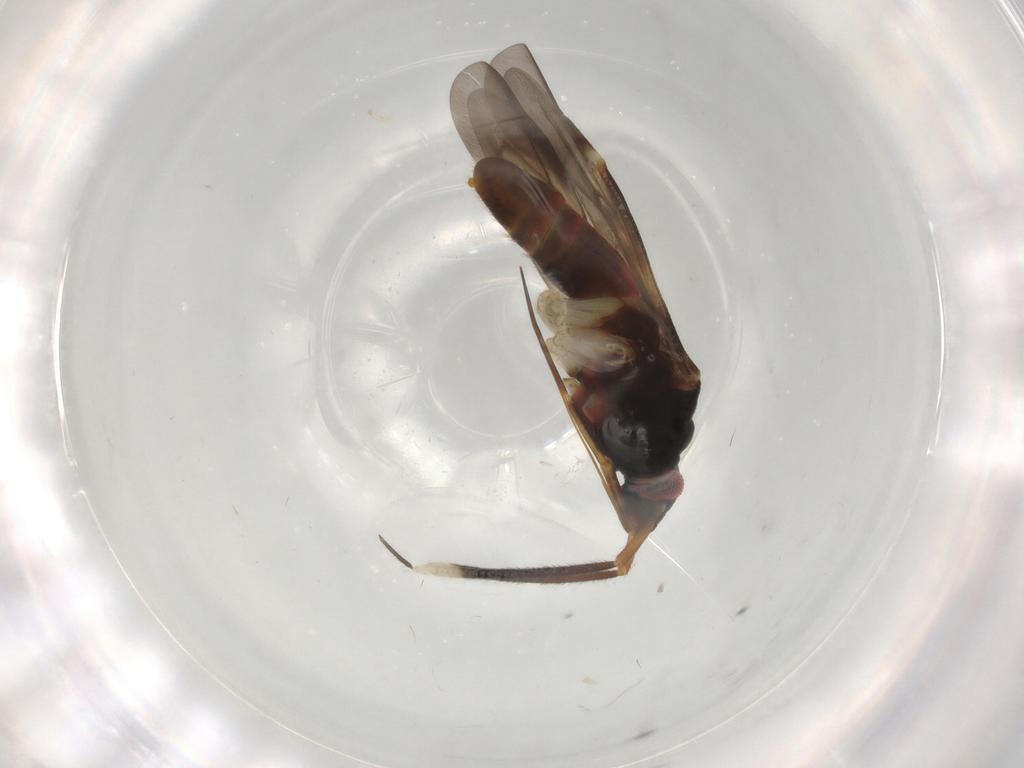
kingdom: Animalia
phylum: Arthropoda
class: Insecta
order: Hemiptera
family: Miridae
